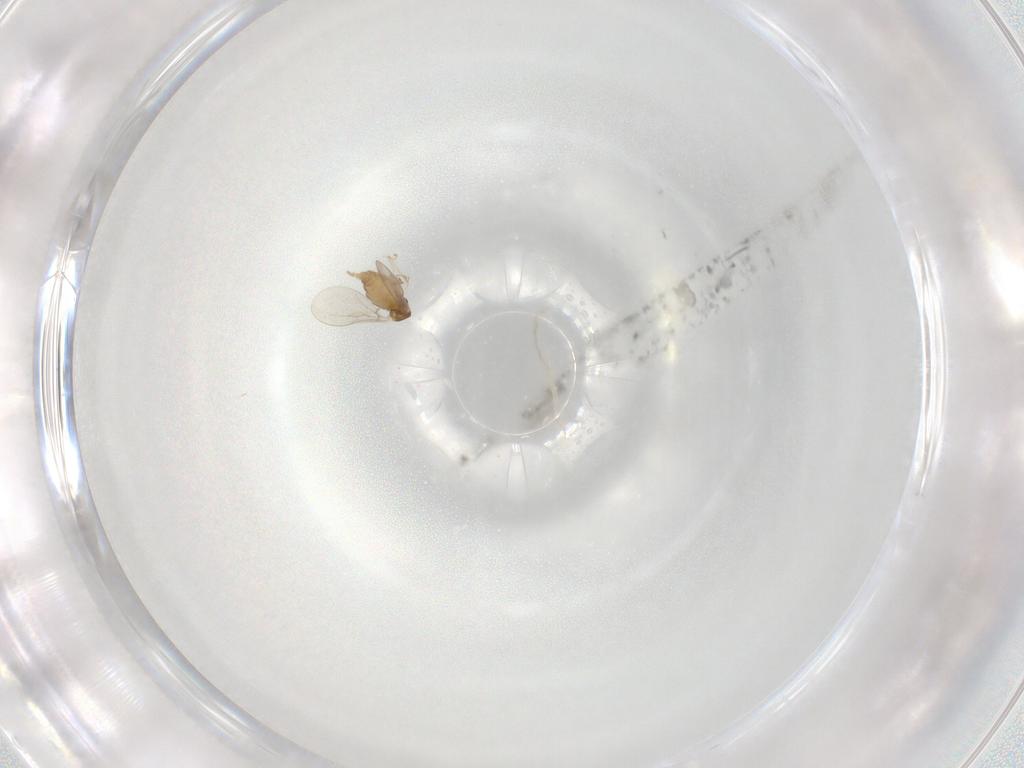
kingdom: Animalia
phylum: Arthropoda
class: Insecta
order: Diptera
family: Cecidomyiidae
